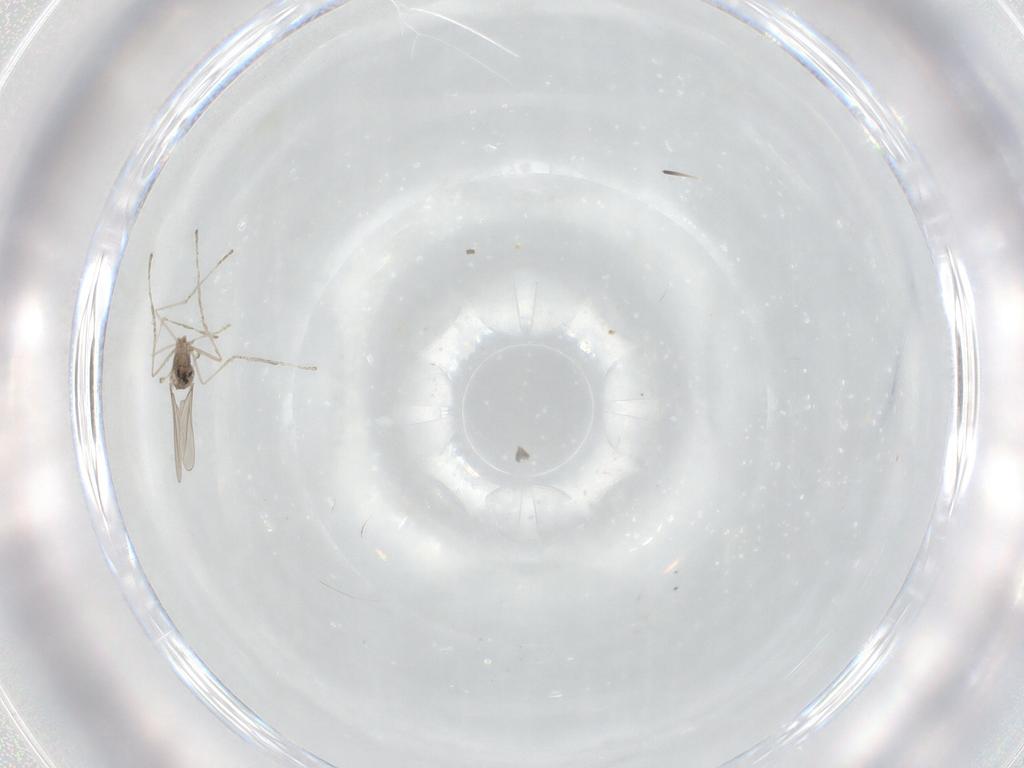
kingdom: Animalia
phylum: Arthropoda
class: Insecta
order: Diptera
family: Chironomidae
